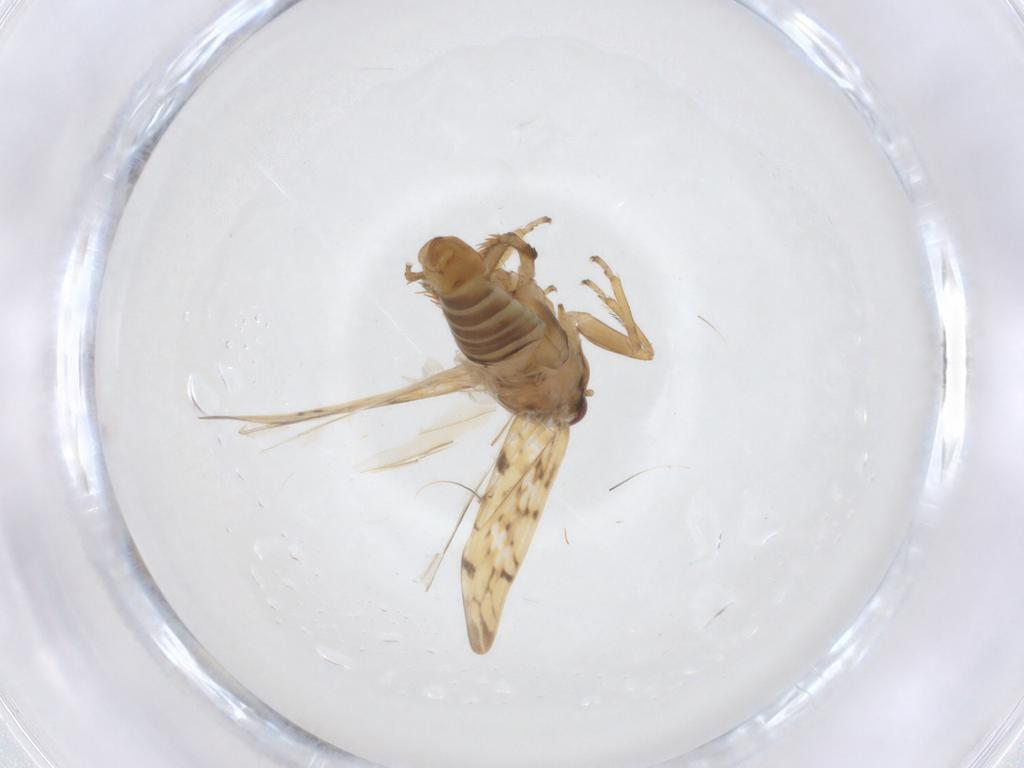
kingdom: Animalia
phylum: Arthropoda
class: Insecta
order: Hemiptera
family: Cicadellidae
